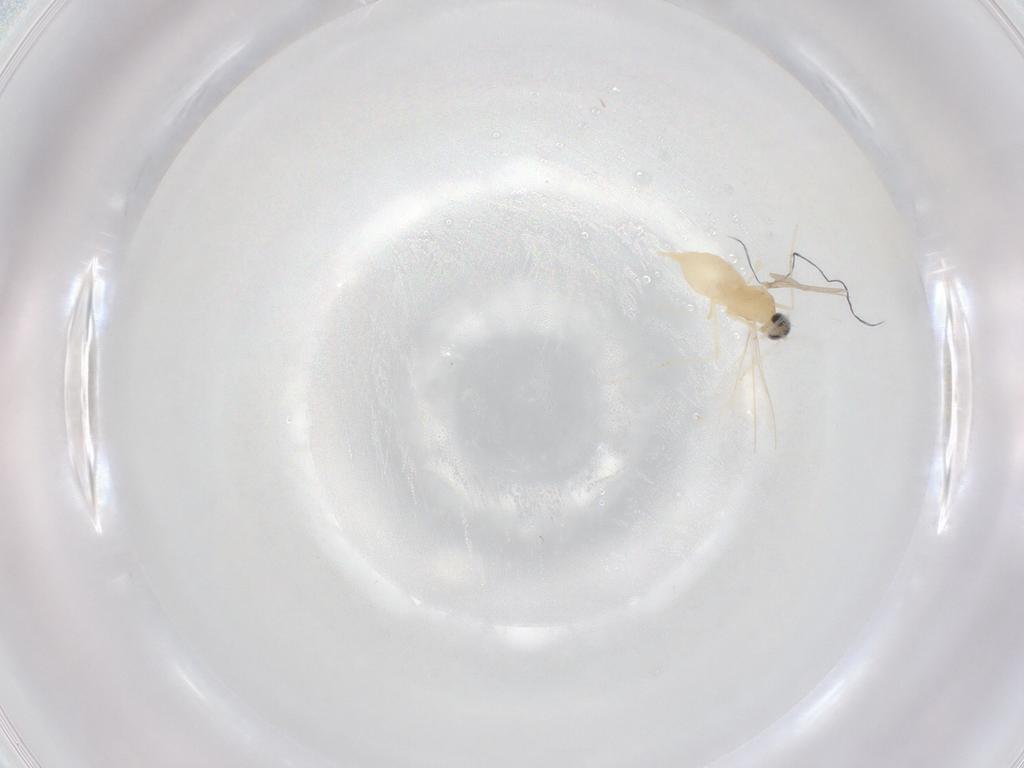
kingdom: Animalia
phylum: Arthropoda
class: Insecta
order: Diptera
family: Cecidomyiidae
